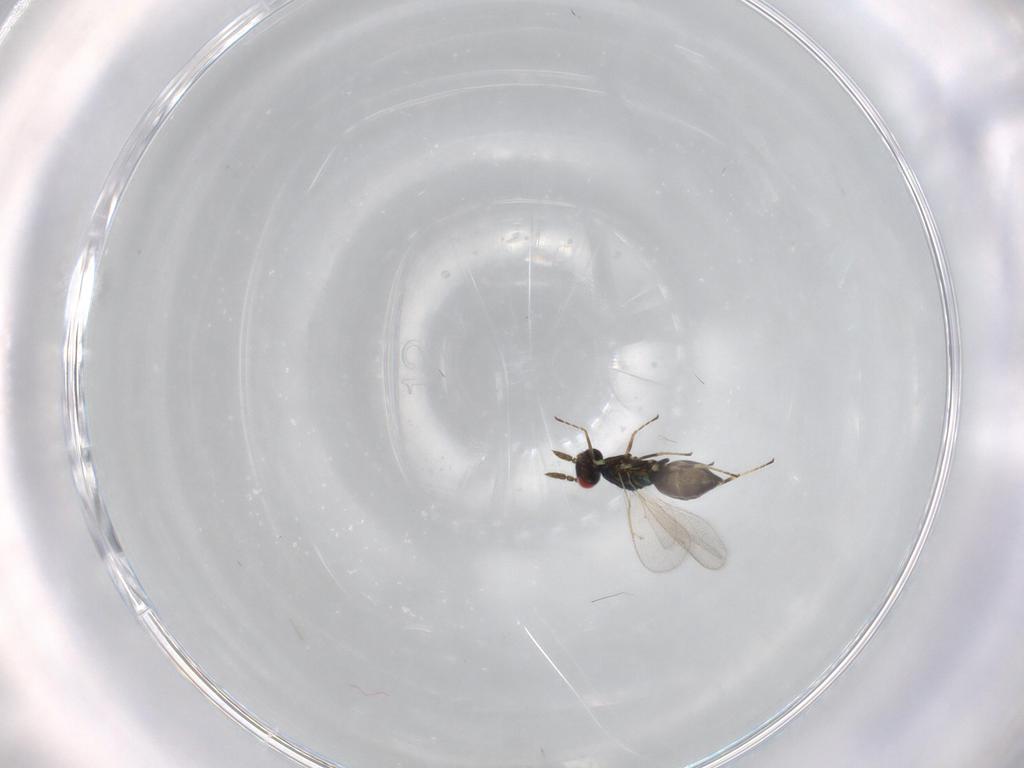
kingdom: Animalia
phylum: Arthropoda
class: Insecta
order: Hymenoptera
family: Eulophidae
